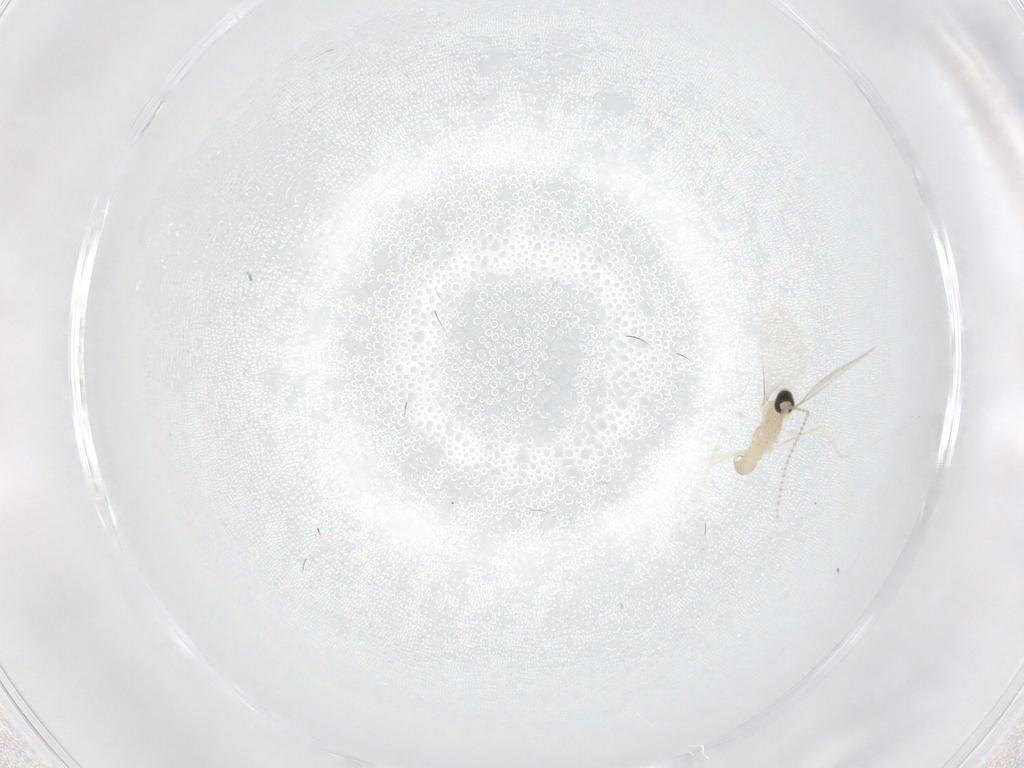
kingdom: Animalia
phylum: Arthropoda
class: Insecta
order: Diptera
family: Cecidomyiidae
